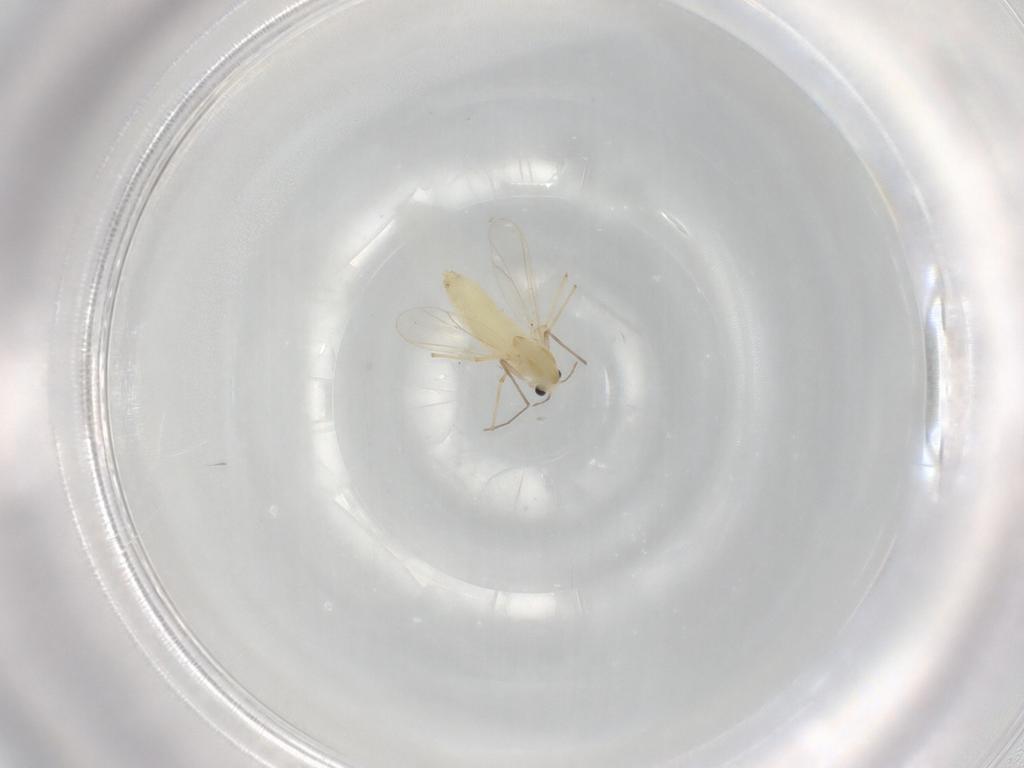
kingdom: Animalia
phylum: Arthropoda
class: Insecta
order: Diptera
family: Chironomidae
